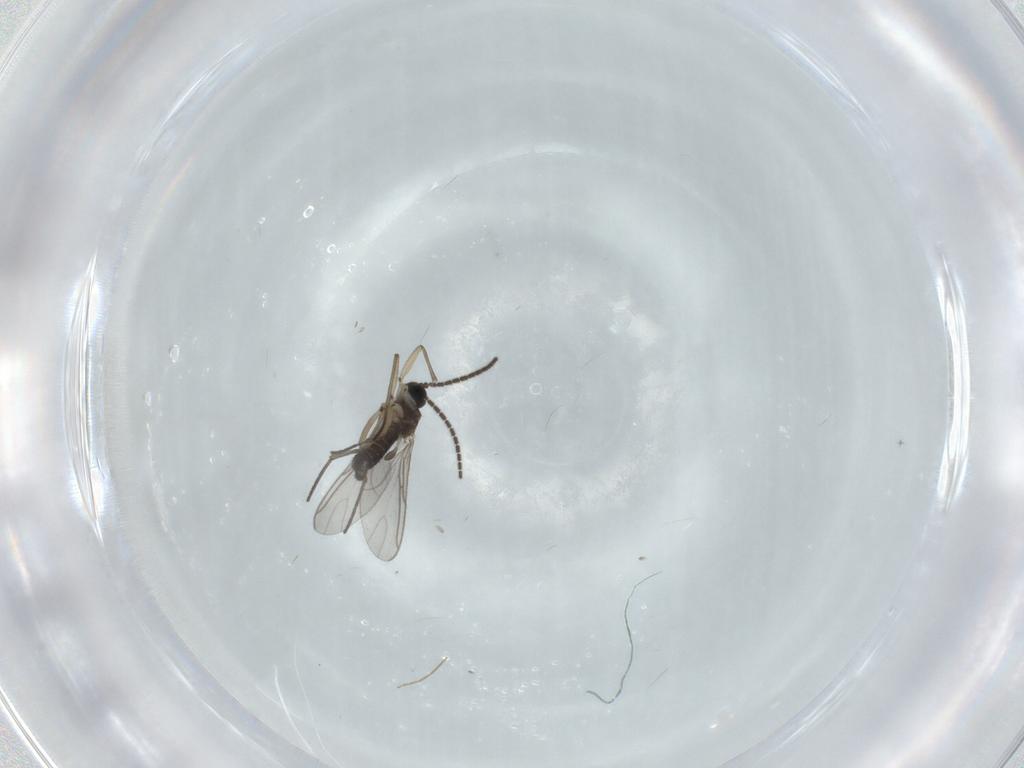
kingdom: Animalia
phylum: Arthropoda
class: Insecta
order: Diptera
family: Sciaridae
